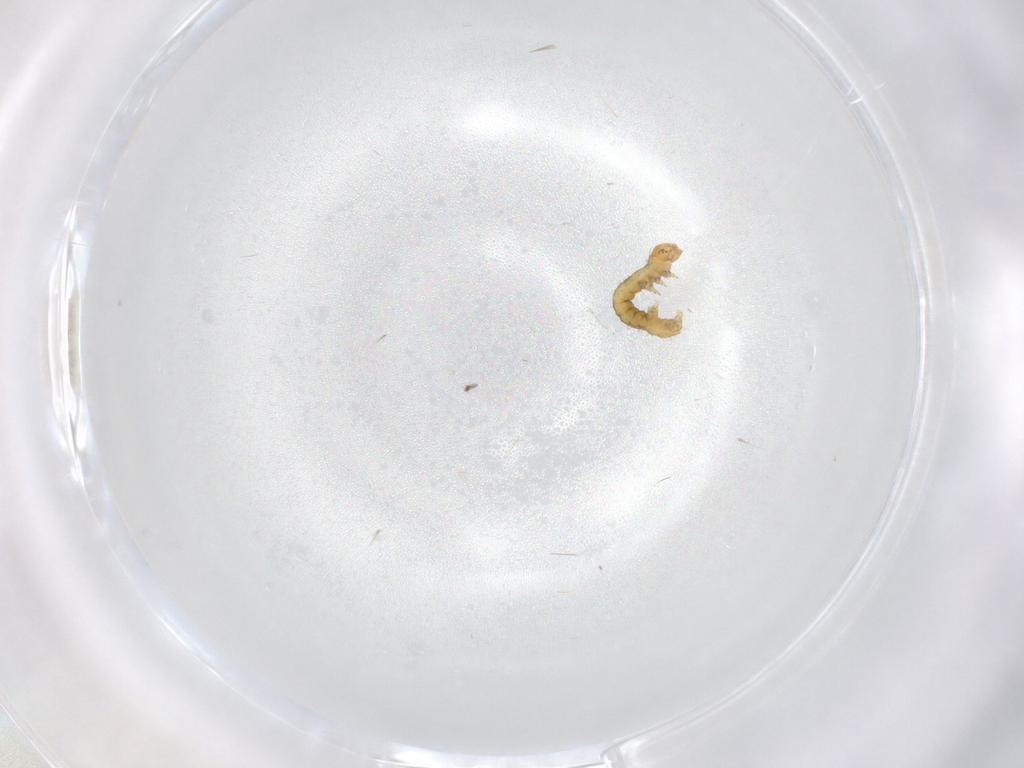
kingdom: Animalia
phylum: Arthropoda
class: Insecta
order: Lepidoptera
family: Geometridae
